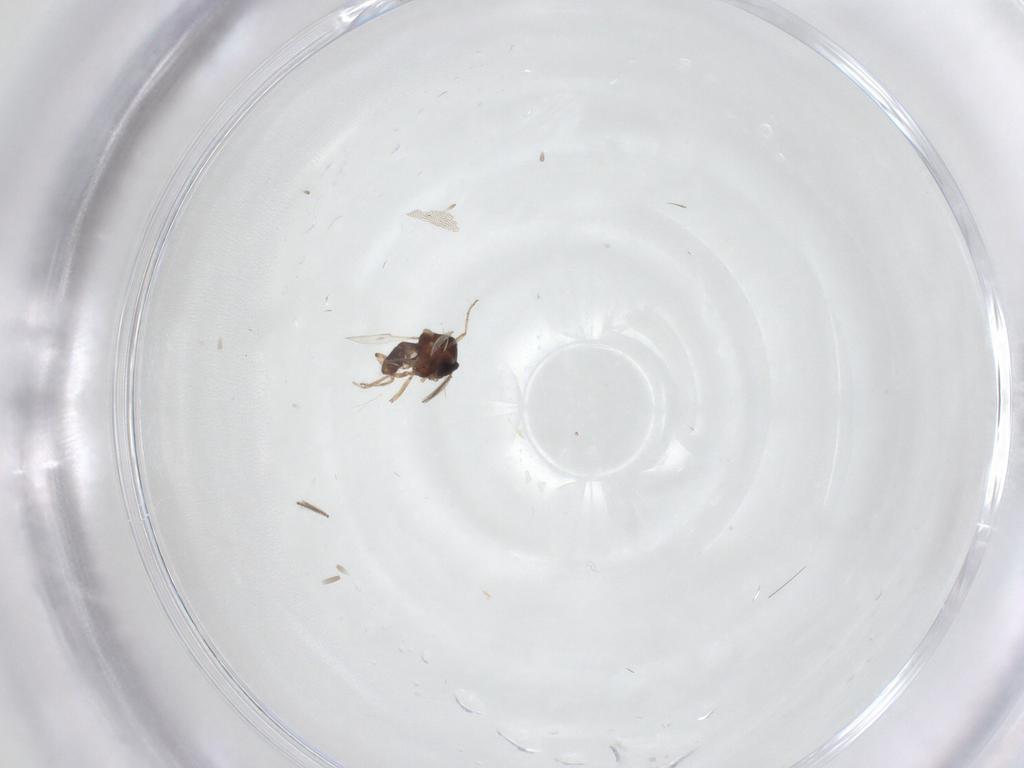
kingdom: Animalia
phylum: Arthropoda
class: Insecta
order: Diptera
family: Ceratopogonidae
